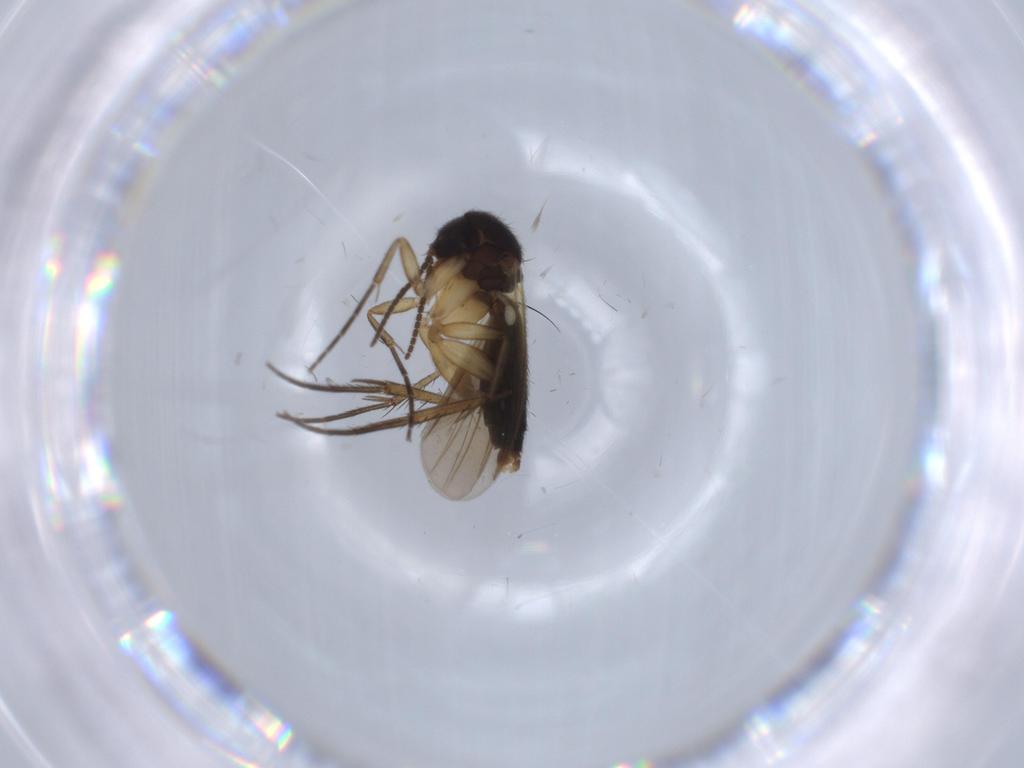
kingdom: Animalia
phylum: Arthropoda
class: Insecta
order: Diptera
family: Mycetophilidae
